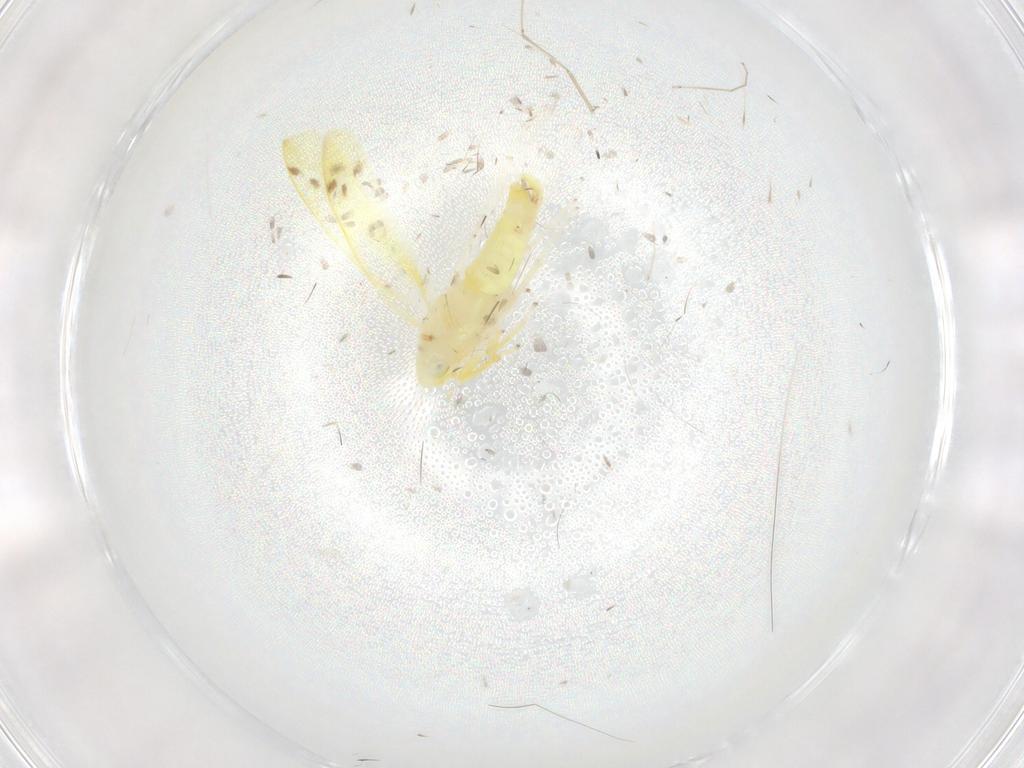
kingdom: Animalia
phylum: Arthropoda
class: Insecta
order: Hemiptera
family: Cicadellidae
